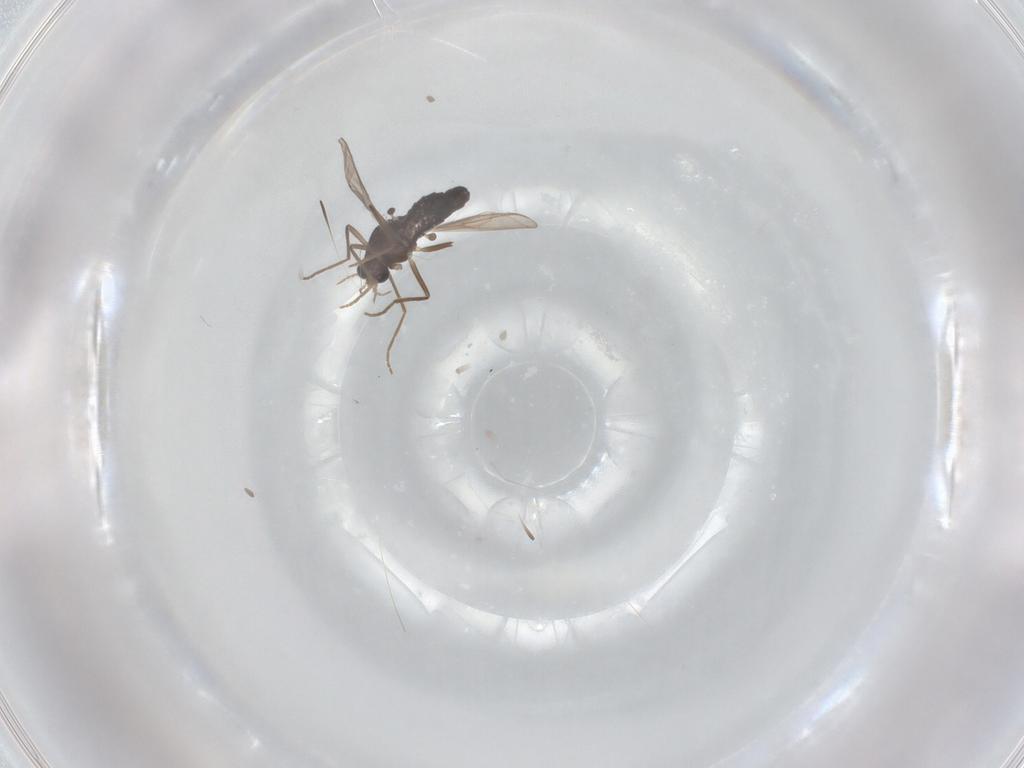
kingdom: Animalia
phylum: Arthropoda
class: Insecta
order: Diptera
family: Chironomidae
